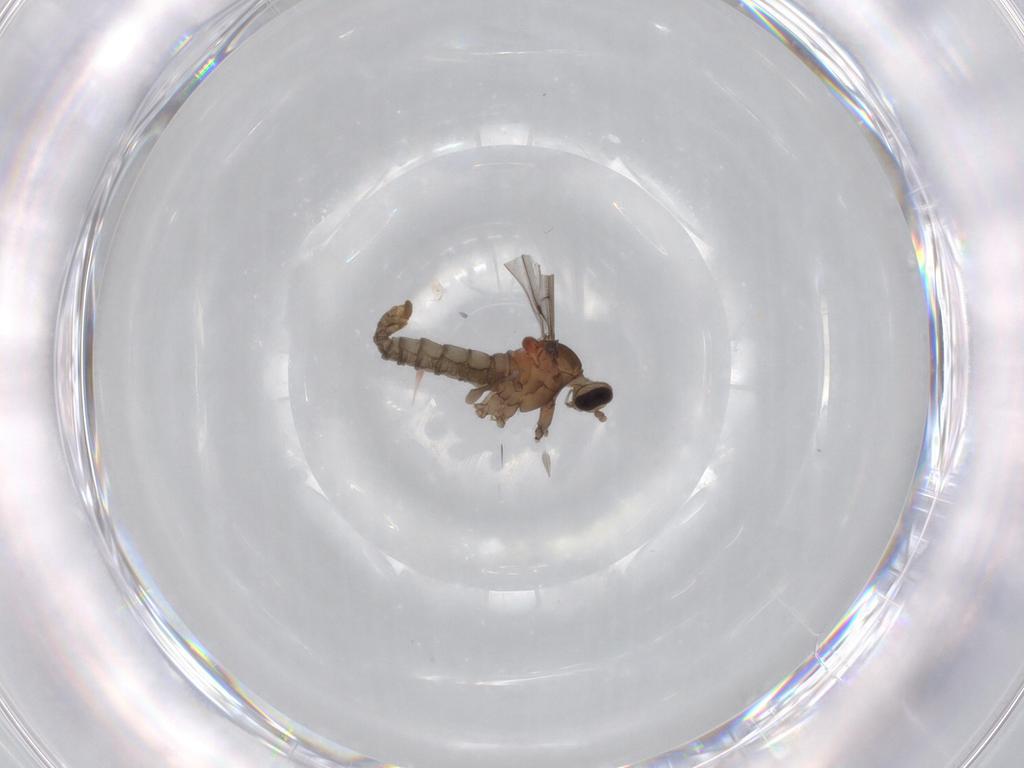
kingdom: Animalia
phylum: Arthropoda
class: Insecta
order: Diptera
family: Cecidomyiidae
